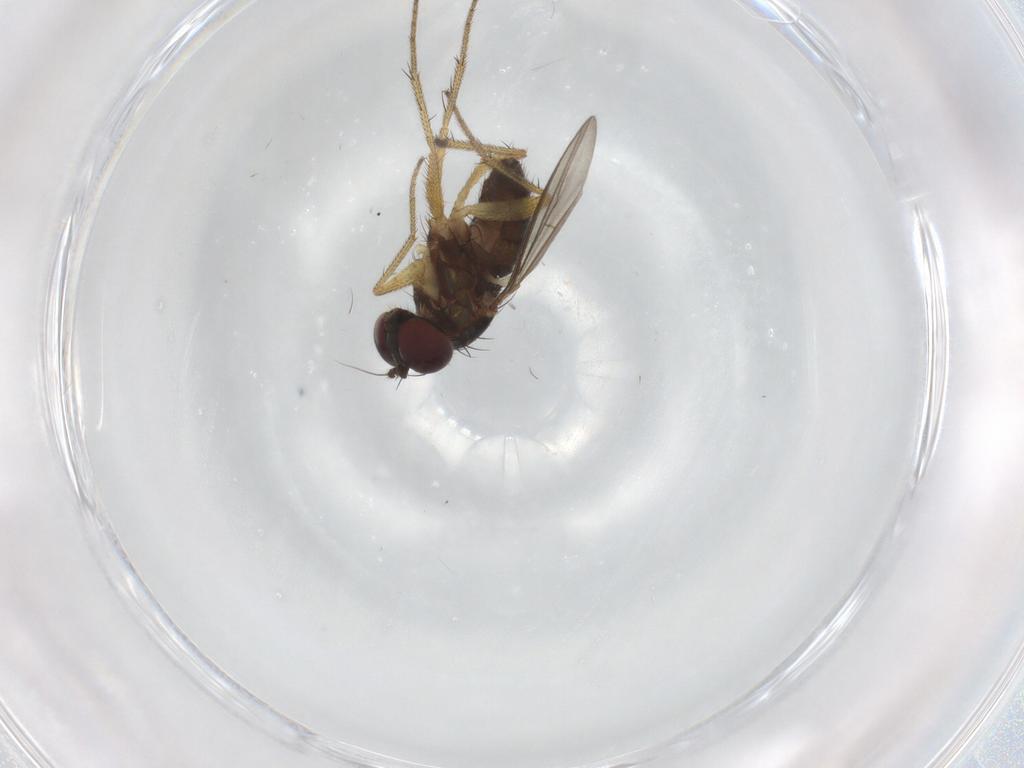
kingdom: Animalia
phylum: Arthropoda
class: Insecta
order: Diptera
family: Dolichopodidae
